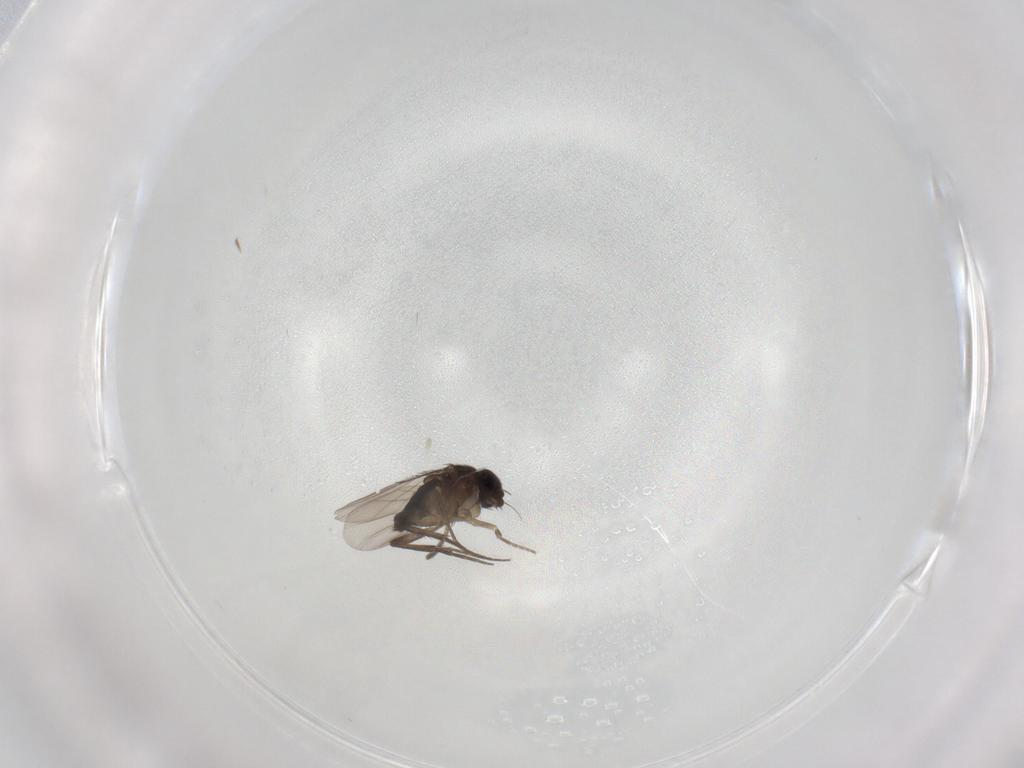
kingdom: Animalia
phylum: Arthropoda
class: Insecta
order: Diptera
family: Phoridae
